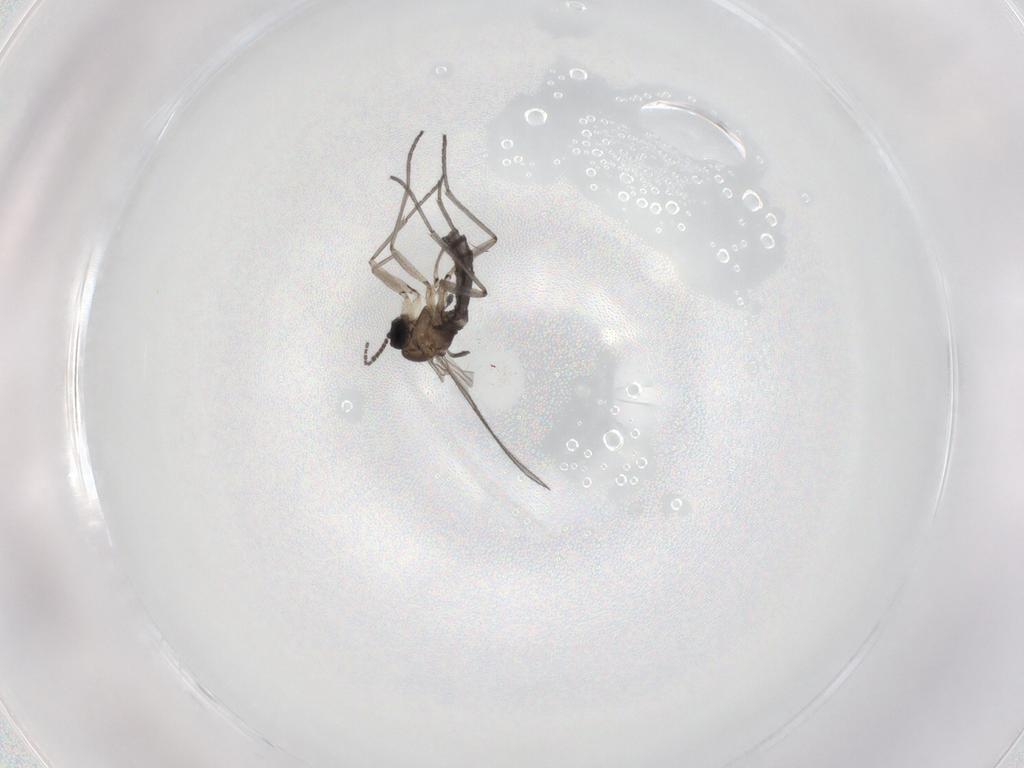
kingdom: Animalia
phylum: Arthropoda
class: Insecta
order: Diptera
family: Sciaridae
